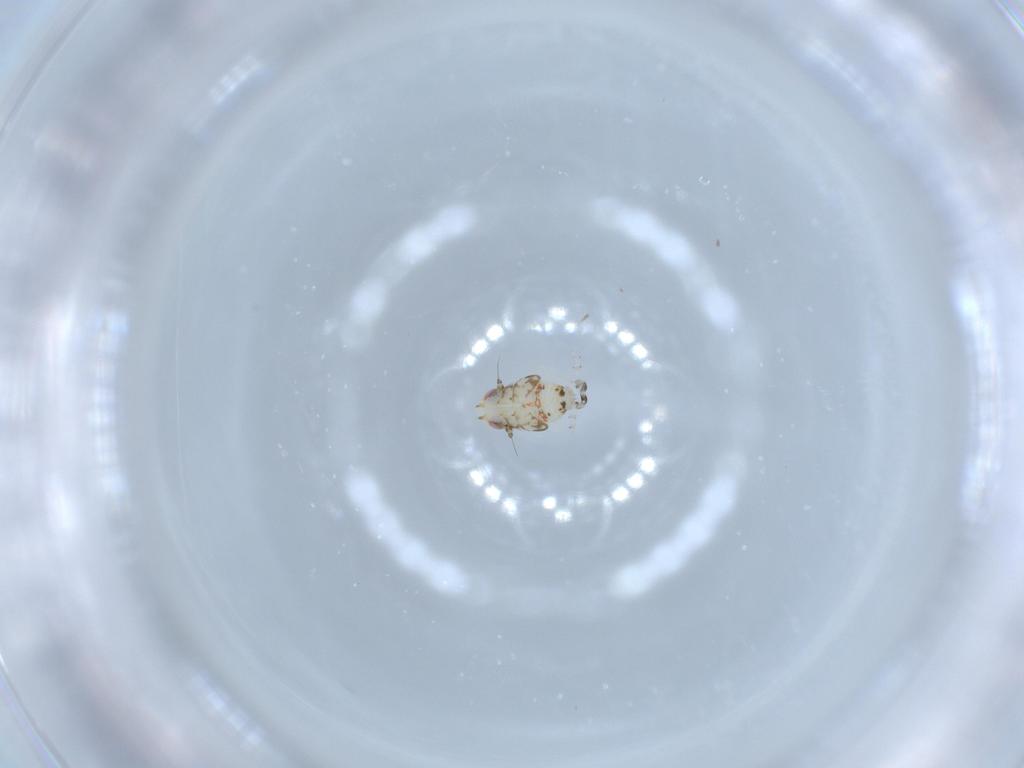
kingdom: Animalia
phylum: Arthropoda
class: Insecta
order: Hemiptera
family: Nogodinidae
